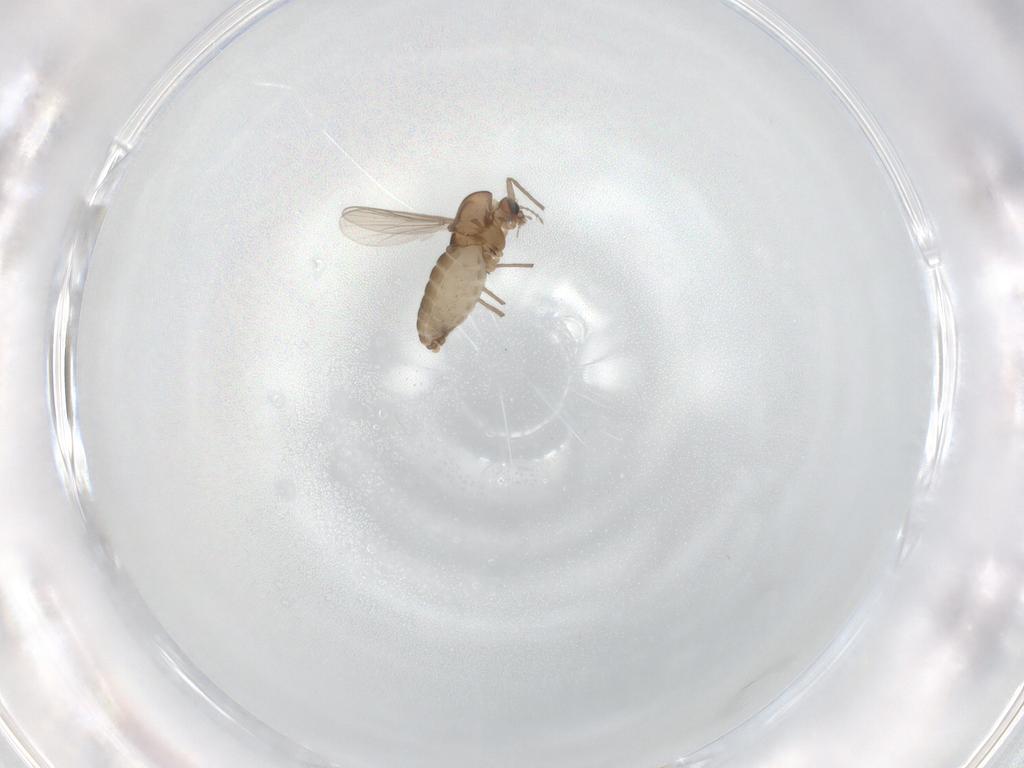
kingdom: Animalia
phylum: Arthropoda
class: Insecta
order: Diptera
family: Chironomidae
